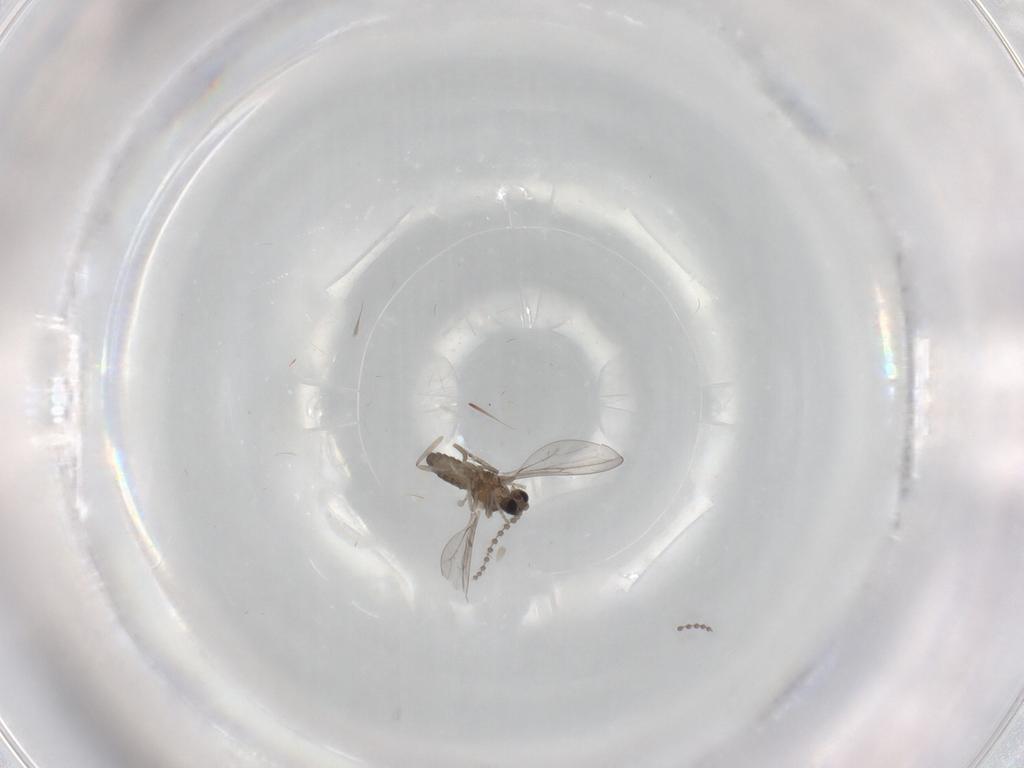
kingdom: Animalia
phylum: Arthropoda
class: Insecta
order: Diptera
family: Cecidomyiidae
